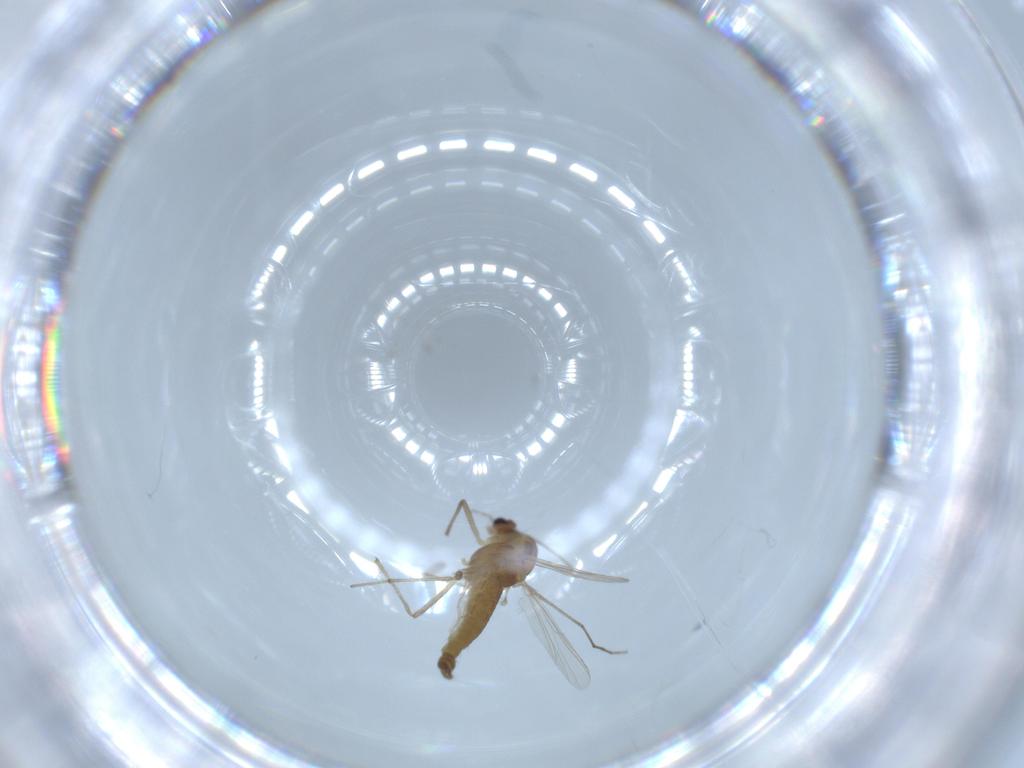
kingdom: Animalia
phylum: Arthropoda
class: Insecta
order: Diptera
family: Chironomidae
